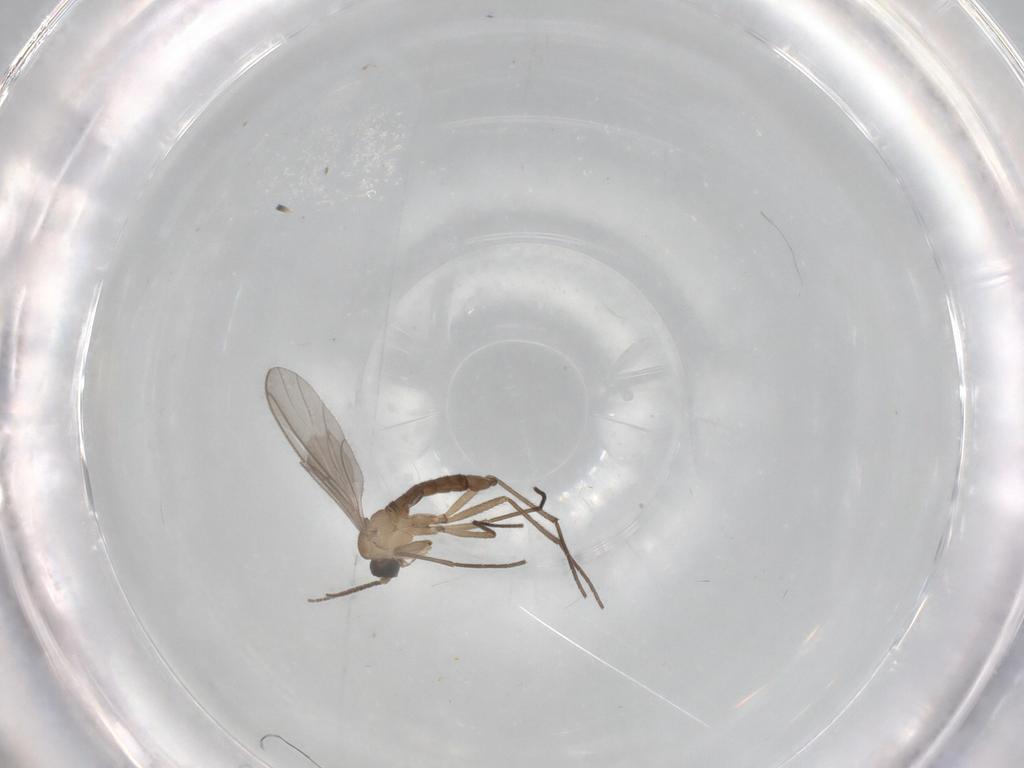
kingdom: Animalia
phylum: Arthropoda
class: Insecta
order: Diptera
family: Sciaridae
